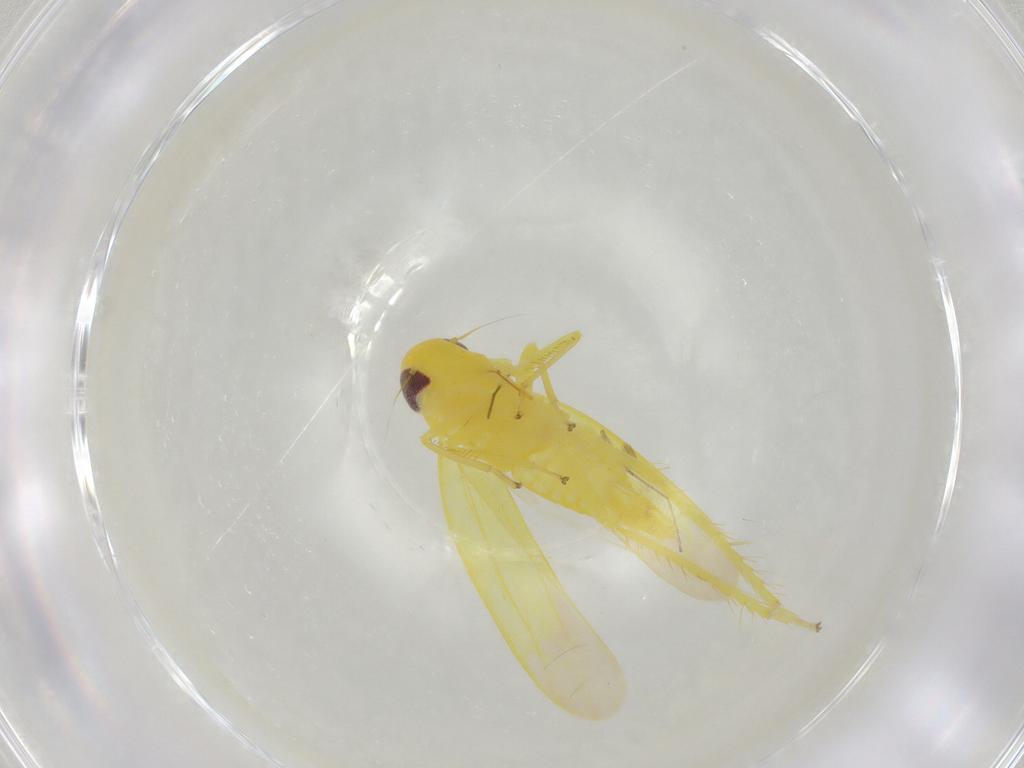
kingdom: Animalia
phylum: Arthropoda
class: Insecta
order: Hemiptera
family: Cicadellidae
